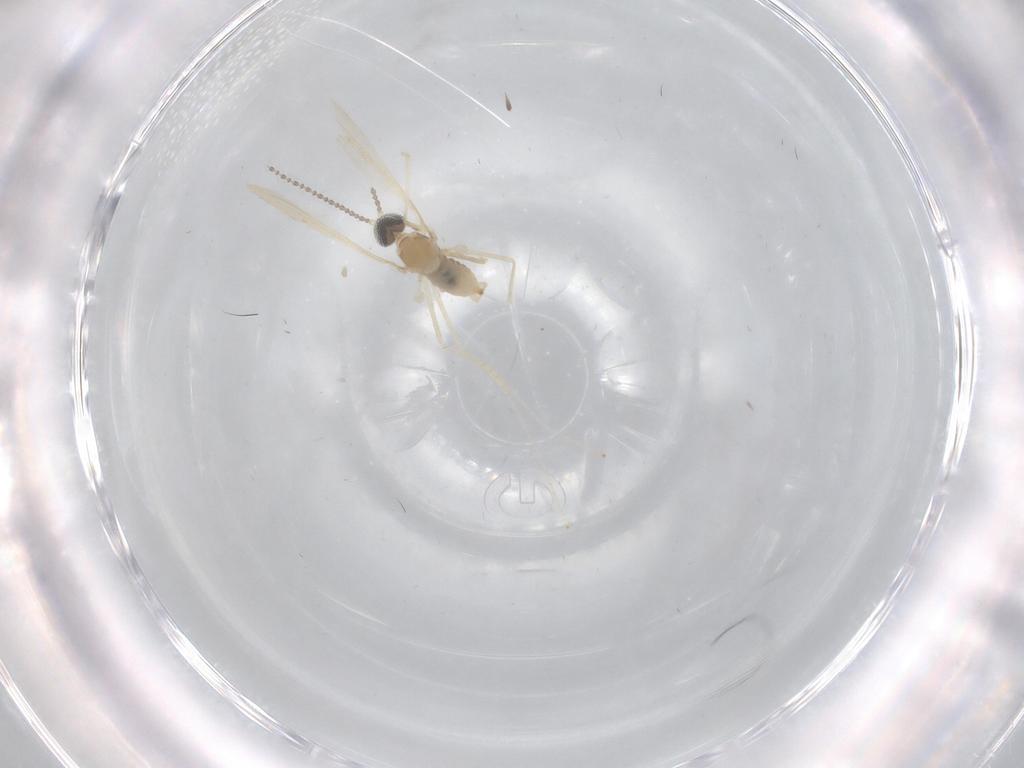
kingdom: Animalia
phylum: Arthropoda
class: Insecta
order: Diptera
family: Cecidomyiidae
